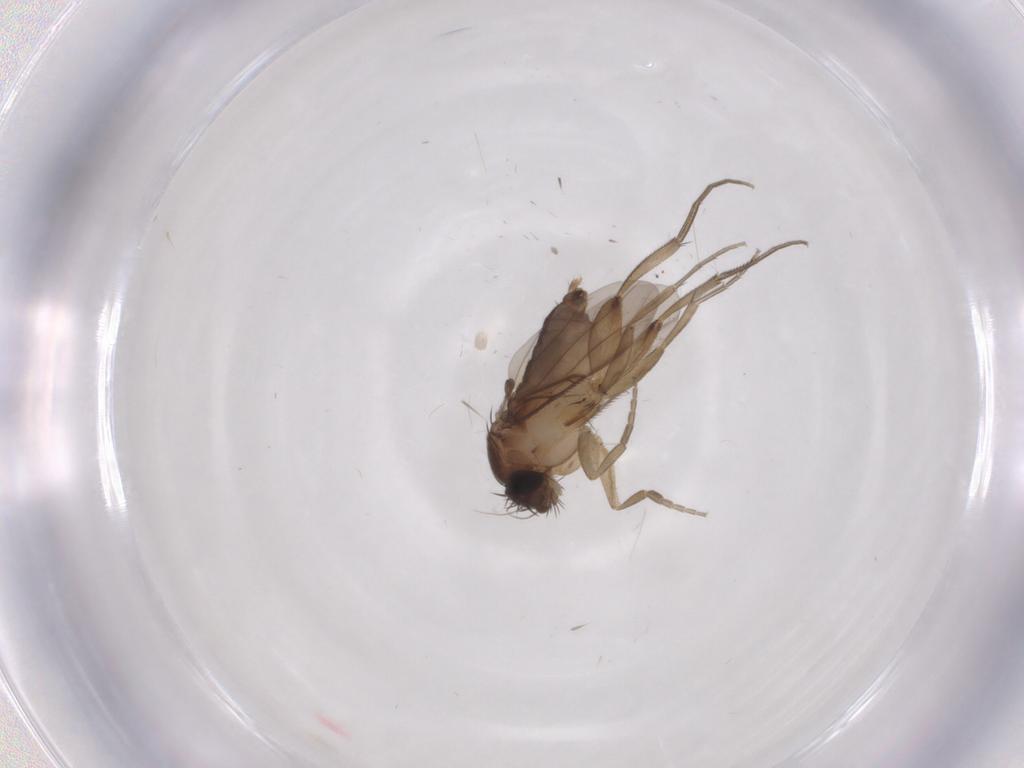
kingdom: Animalia
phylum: Arthropoda
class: Insecta
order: Diptera
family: Phoridae
